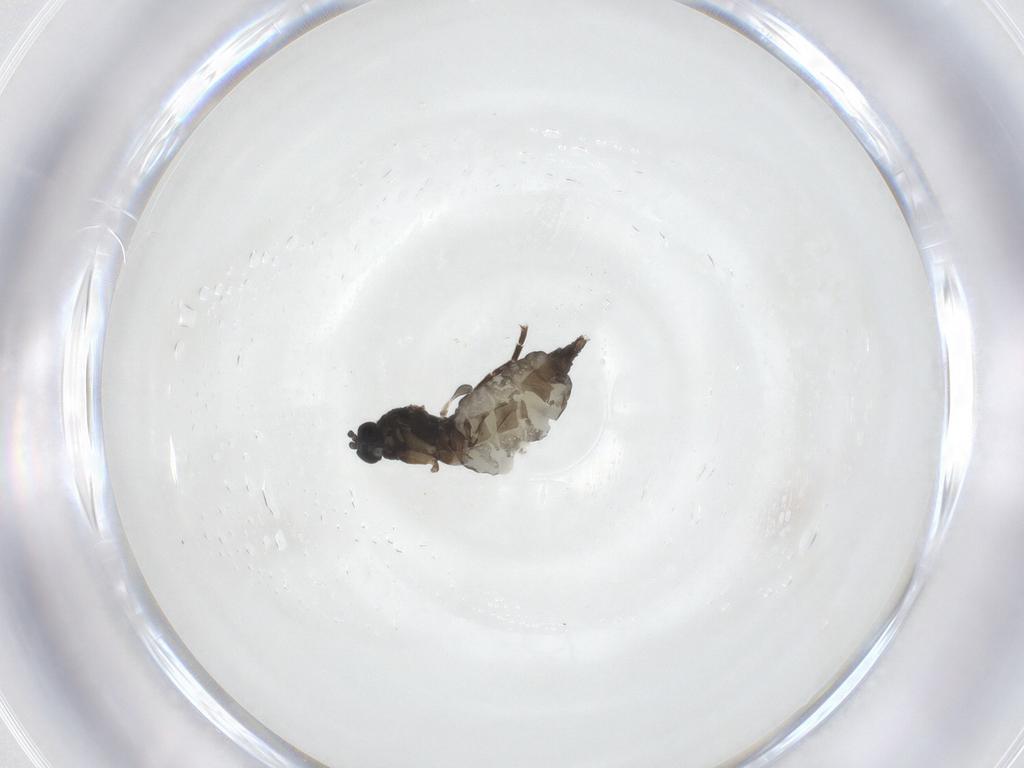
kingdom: Animalia
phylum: Arthropoda
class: Insecta
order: Diptera
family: Sciaridae
